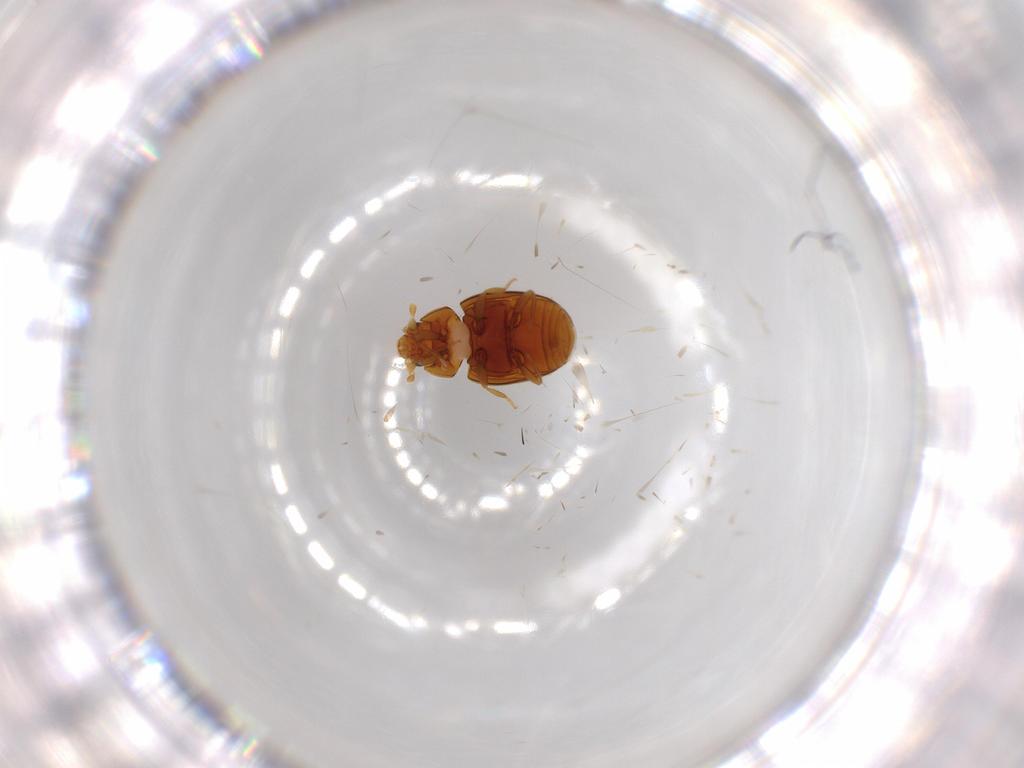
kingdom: Animalia
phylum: Arthropoda
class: Insecta
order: Coleoptera
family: Coccinellidae
